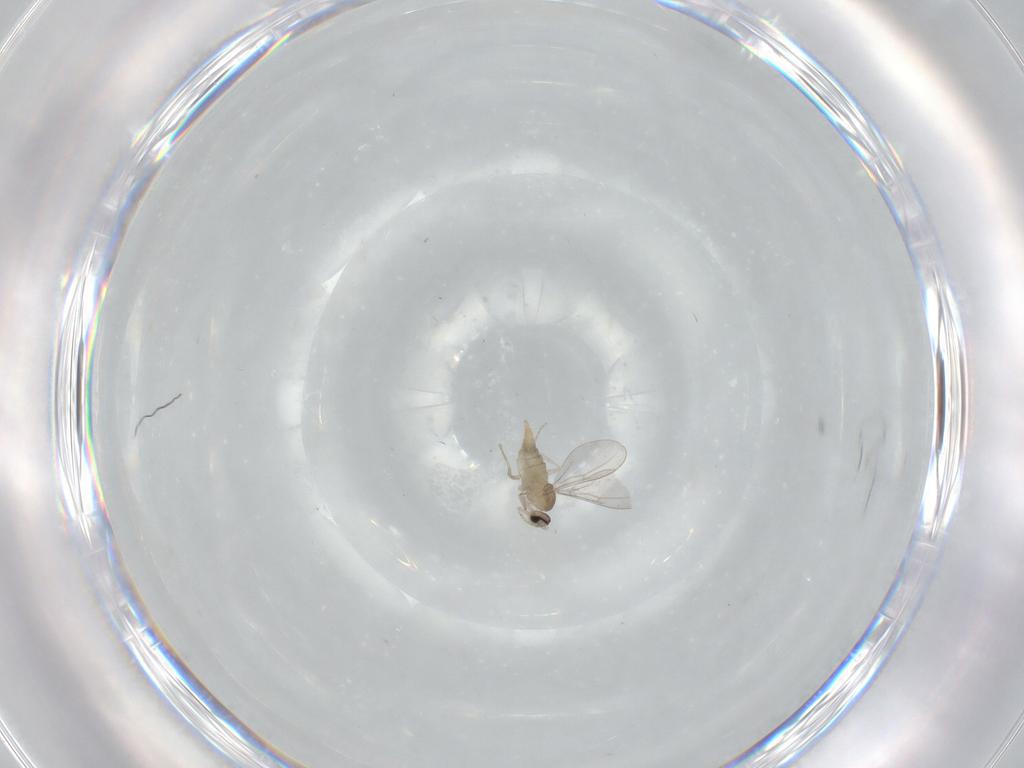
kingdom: Animalia
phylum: Arthropoda
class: Insecta
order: Diptera
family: Cecidomyiidae
